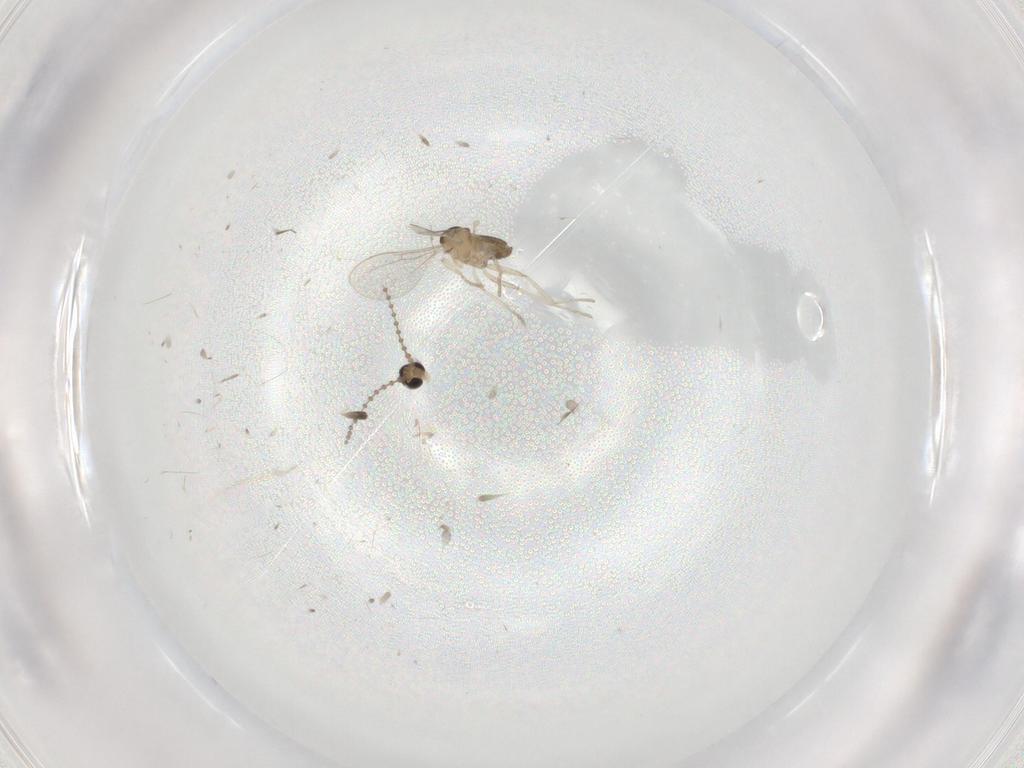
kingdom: Animalia
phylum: Arthropoda
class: Insecta
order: Diptera
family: Cecidomyiidae
